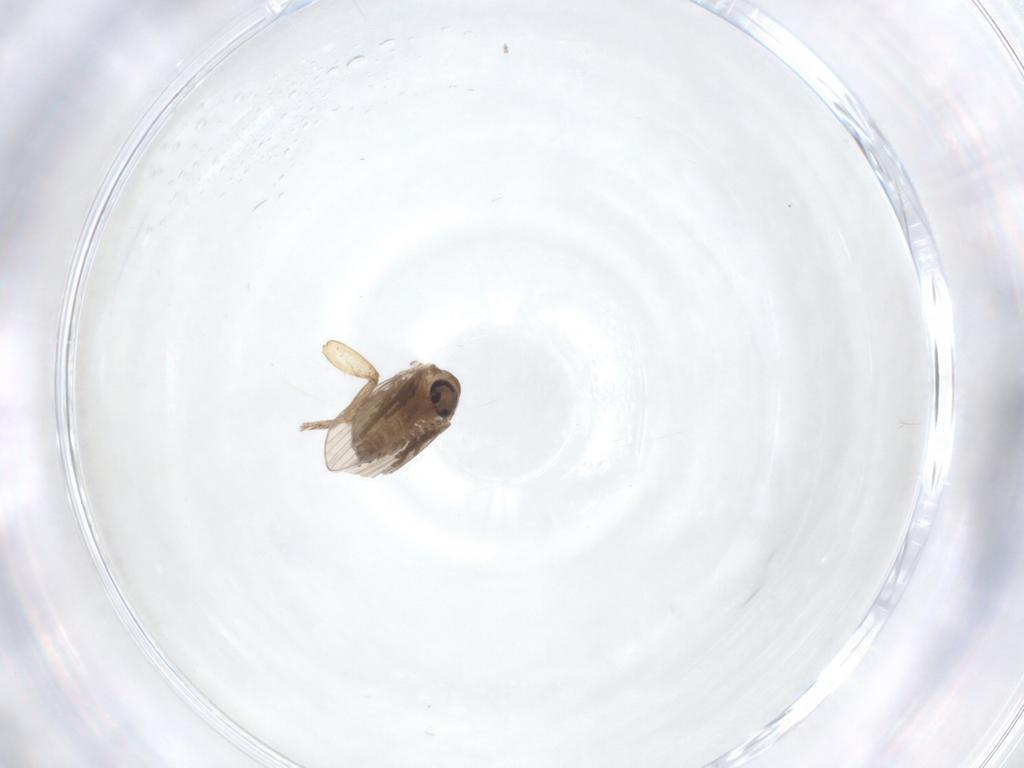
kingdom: Animalia
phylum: Arthropoda
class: Insecta
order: Diptera
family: Psychodidae
